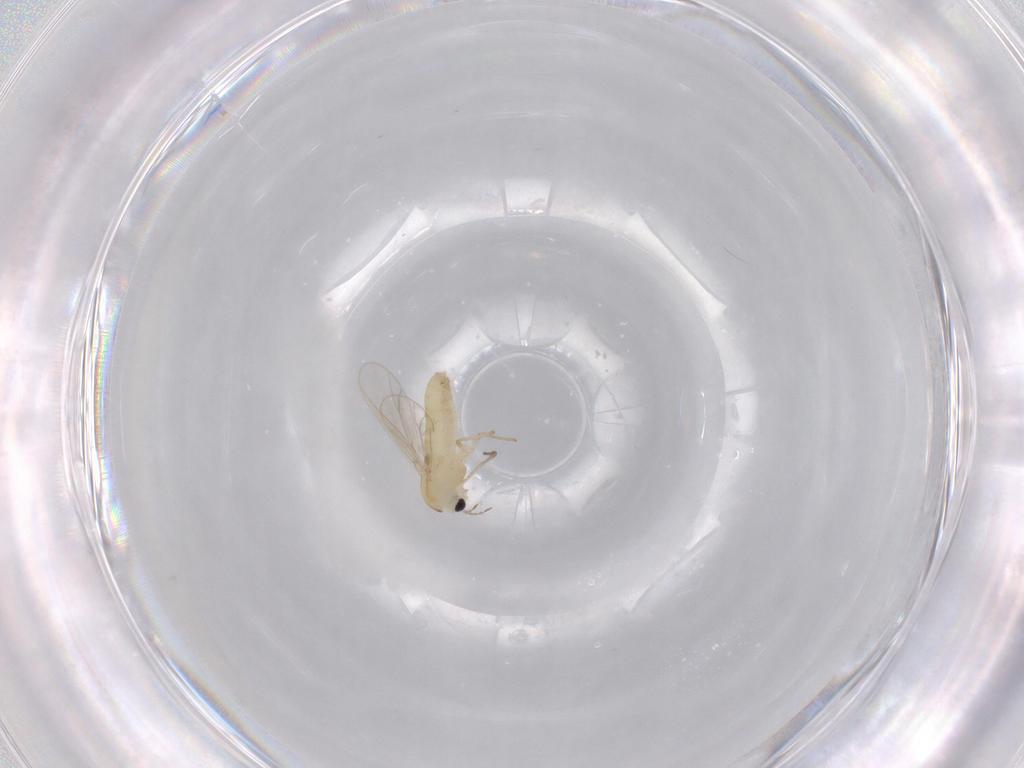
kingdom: Animalia
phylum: Arthropoda
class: Insecta
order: Diptera
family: Chironomidae
